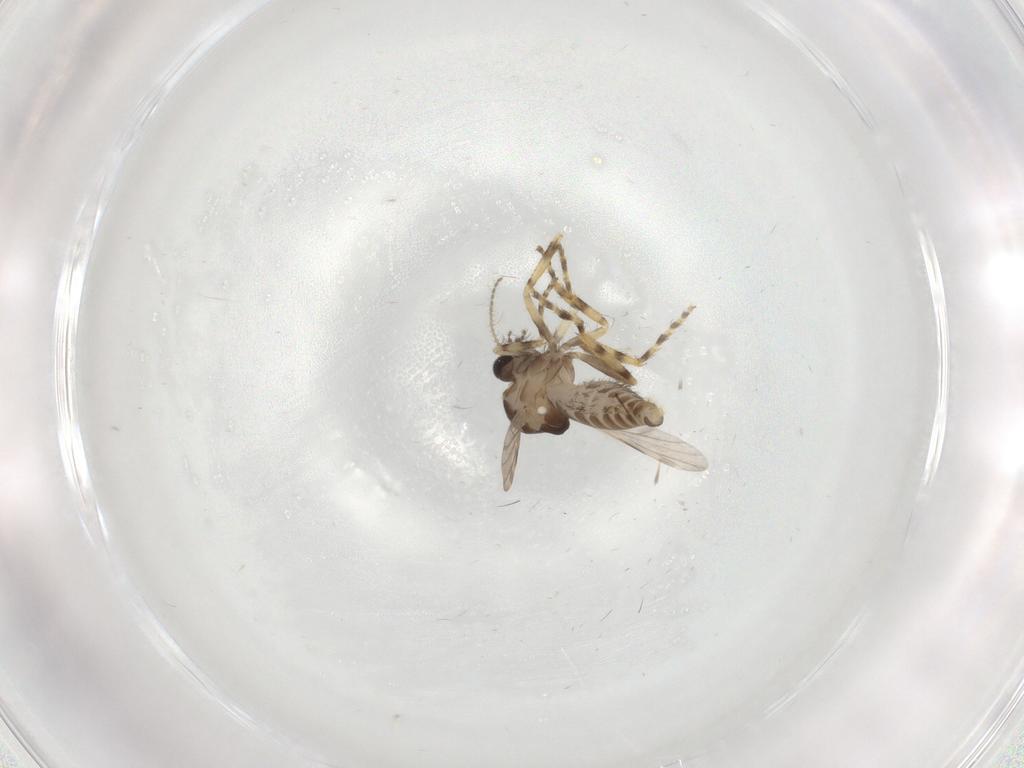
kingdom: Animalia
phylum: Arthropoda
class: Insecta
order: Diptera
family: Ceratopogonidae
